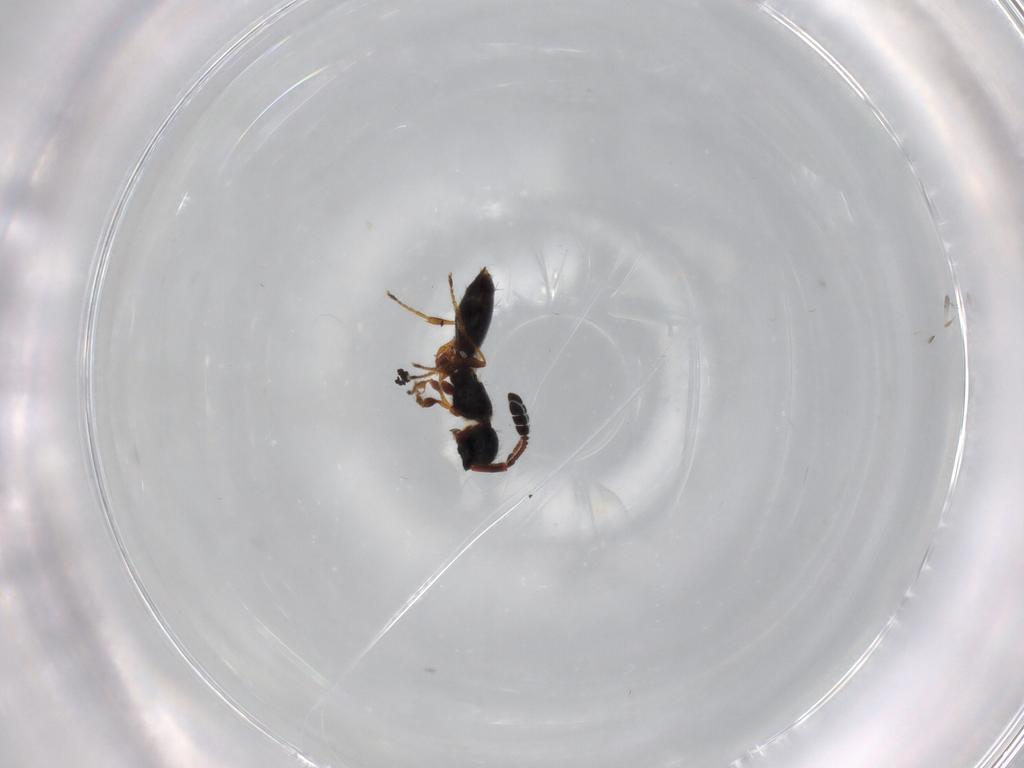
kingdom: Animalia
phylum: Arthropoda
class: Insecta
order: Hymenoptera
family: Diapriidae
